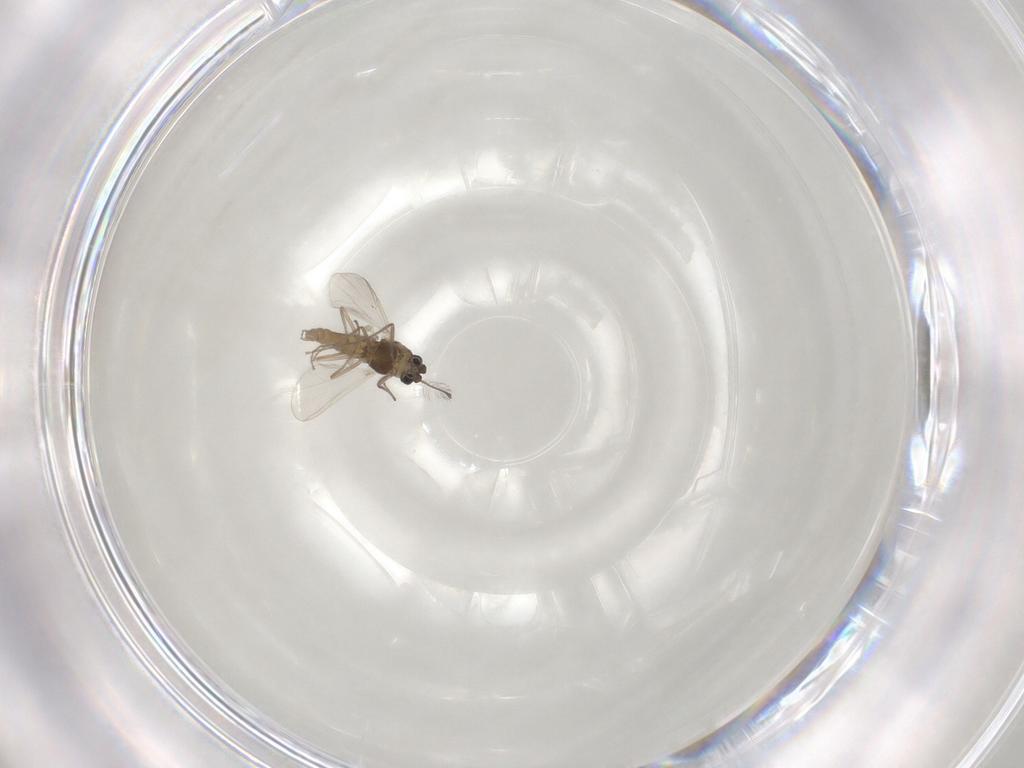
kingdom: Animalia
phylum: Arthropoda
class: Insecta
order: Diptera
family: Chironomidae
